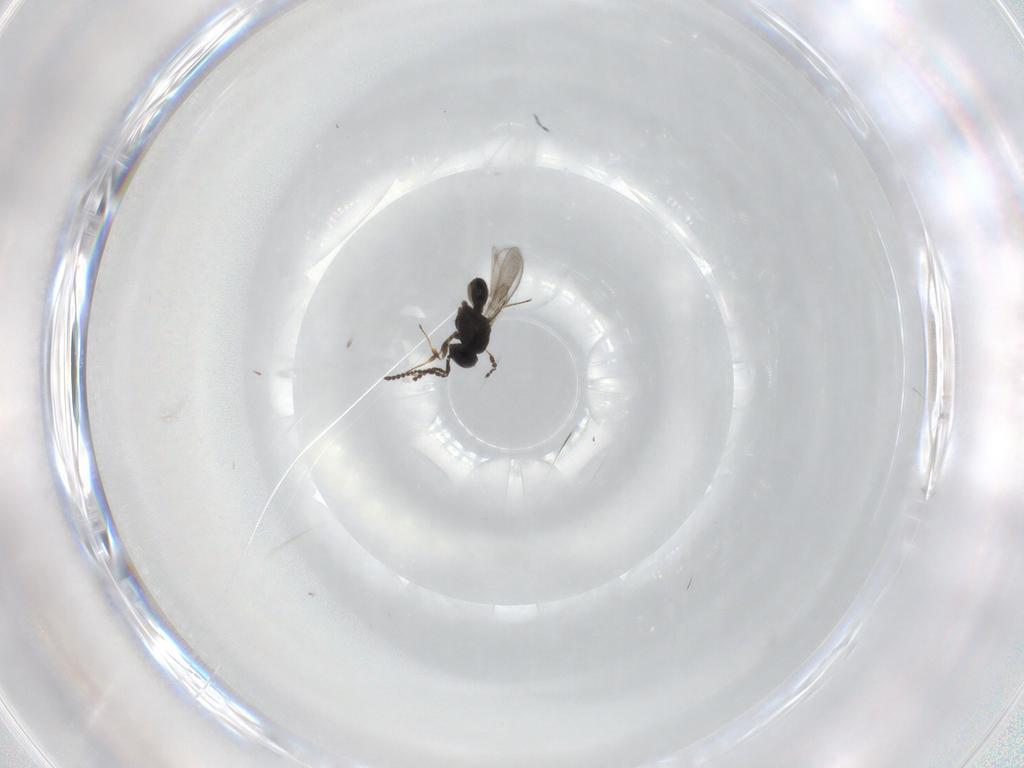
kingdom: Animalia
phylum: Arthropoda
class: Insecta
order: Hymenoptera
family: Scelionidae
